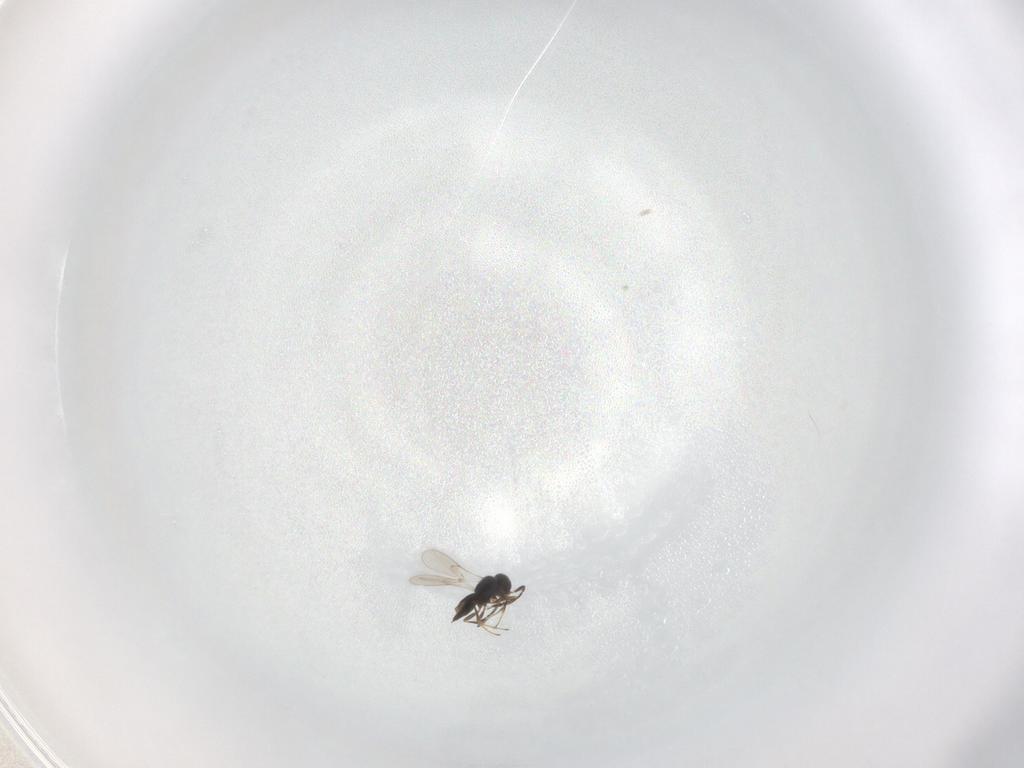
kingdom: Animalia
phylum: Arthropoda
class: Insecta
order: Hymenoptera
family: Scelionidae
